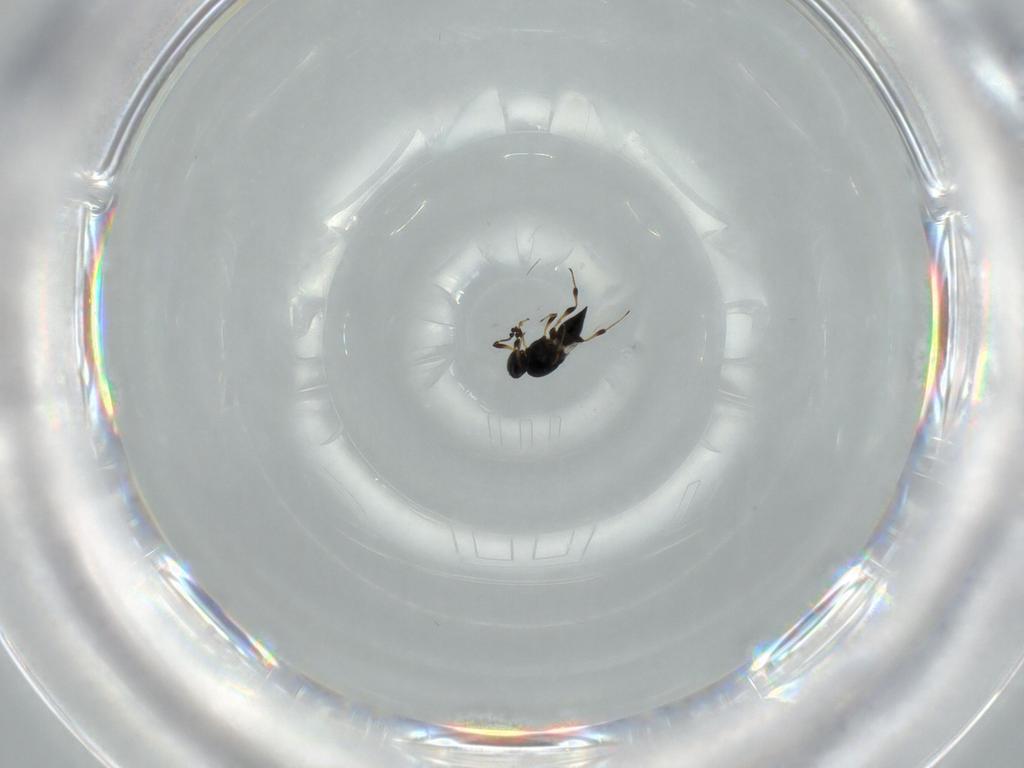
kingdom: Animalia
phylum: Arthropoda
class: Insecta
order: Hymenoptera
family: Platygastridae
